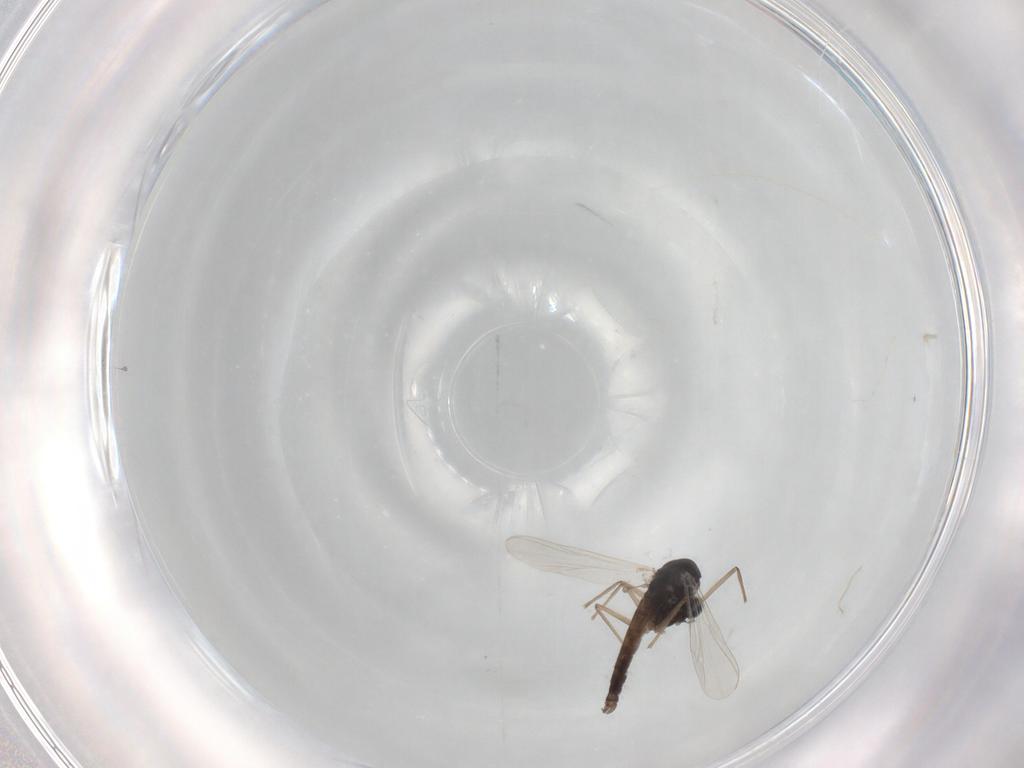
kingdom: Animalia
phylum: Arthropoda
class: Insecta
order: Diptera
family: Chironomidae
